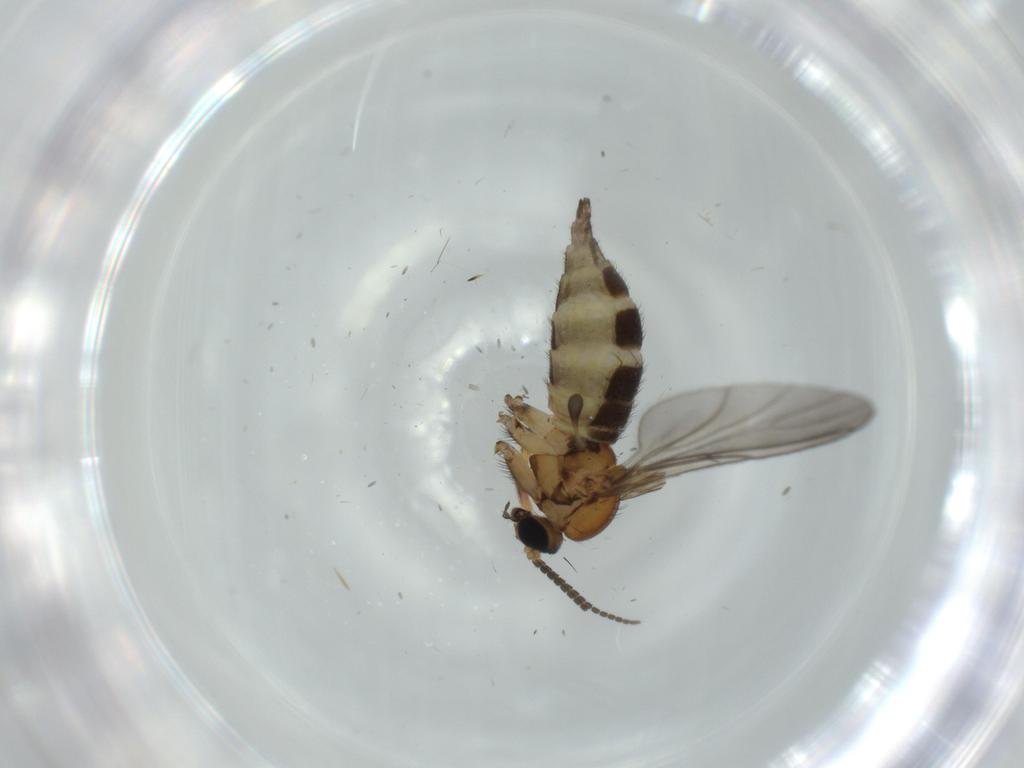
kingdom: Animalia
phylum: Arthropoda
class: Insecta
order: Diptera
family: Sciaridae
